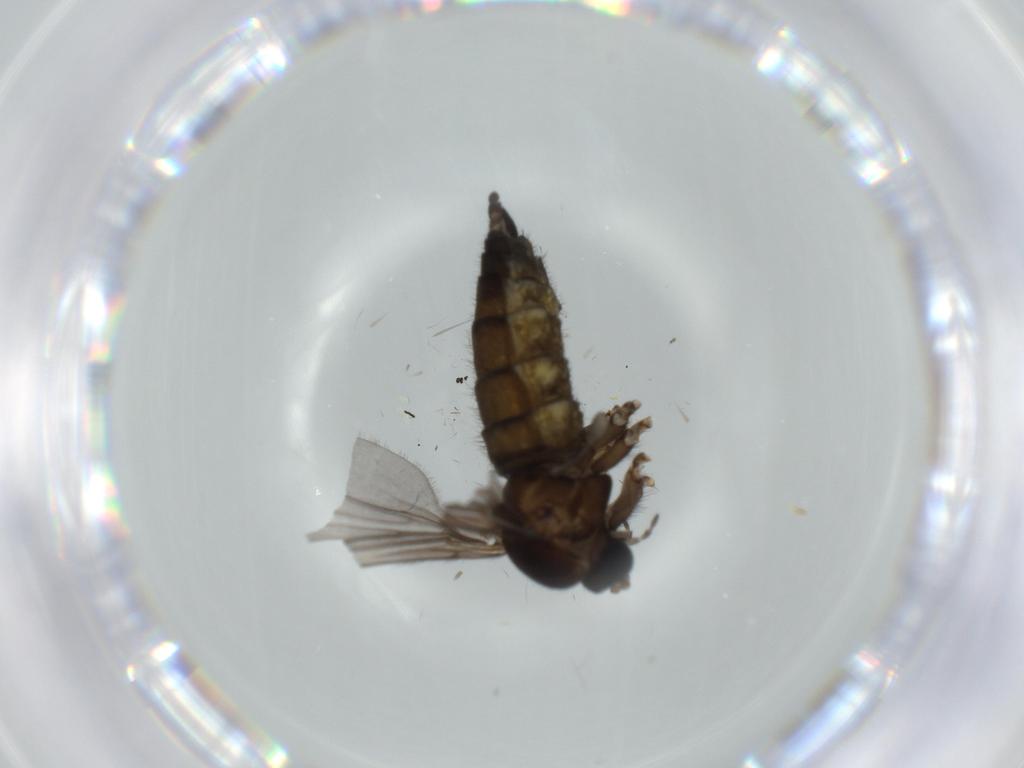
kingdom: Animalia
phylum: Arthropoda
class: Insecta
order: Diptera
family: Sciaridae
